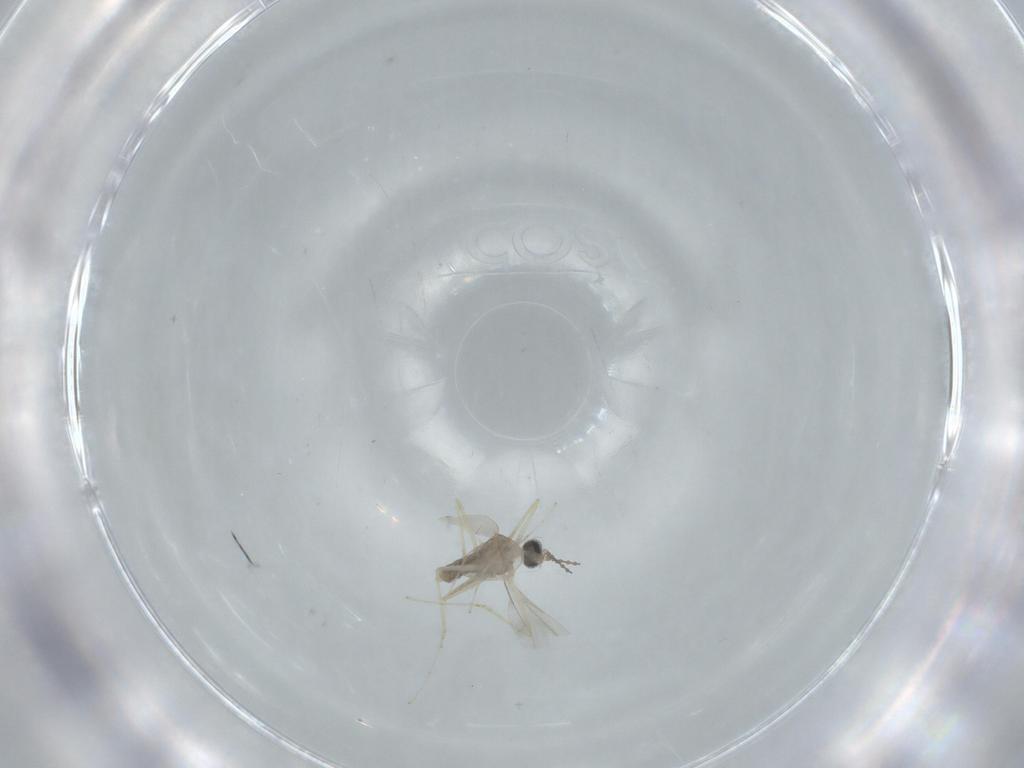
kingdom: Animalia
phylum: Arthropoda
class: Insecta
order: Diptera
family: Cecidomyiidae
